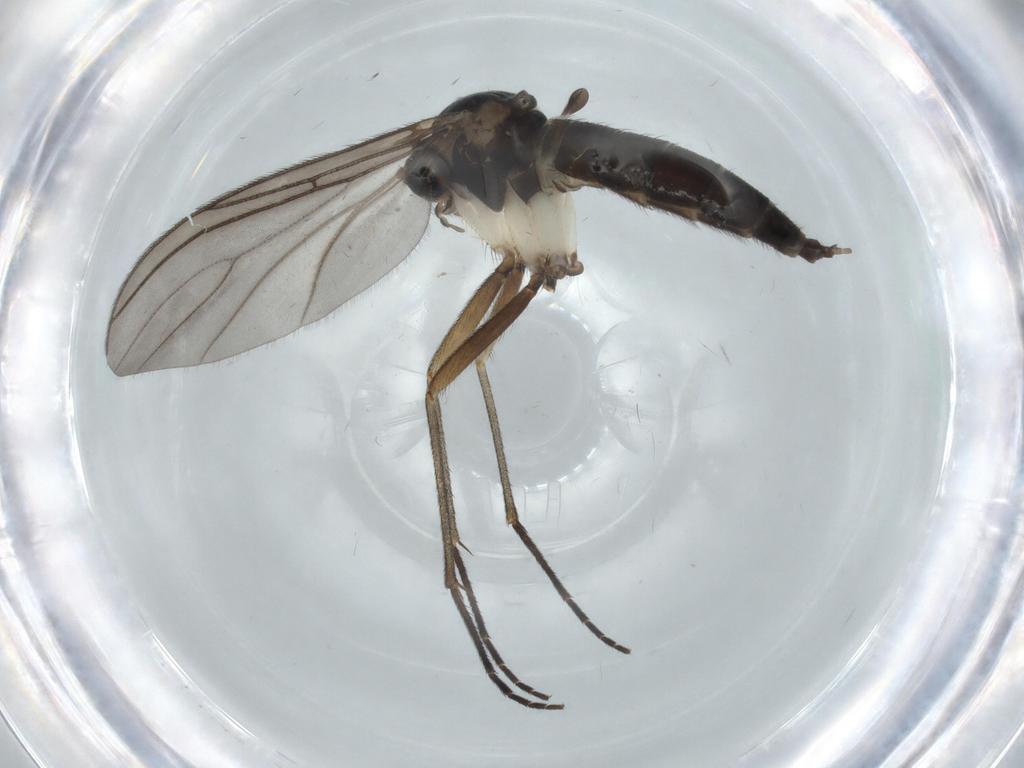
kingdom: Animalia
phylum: Arthropoda
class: Insecta
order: Diptera
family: Sciaridae
